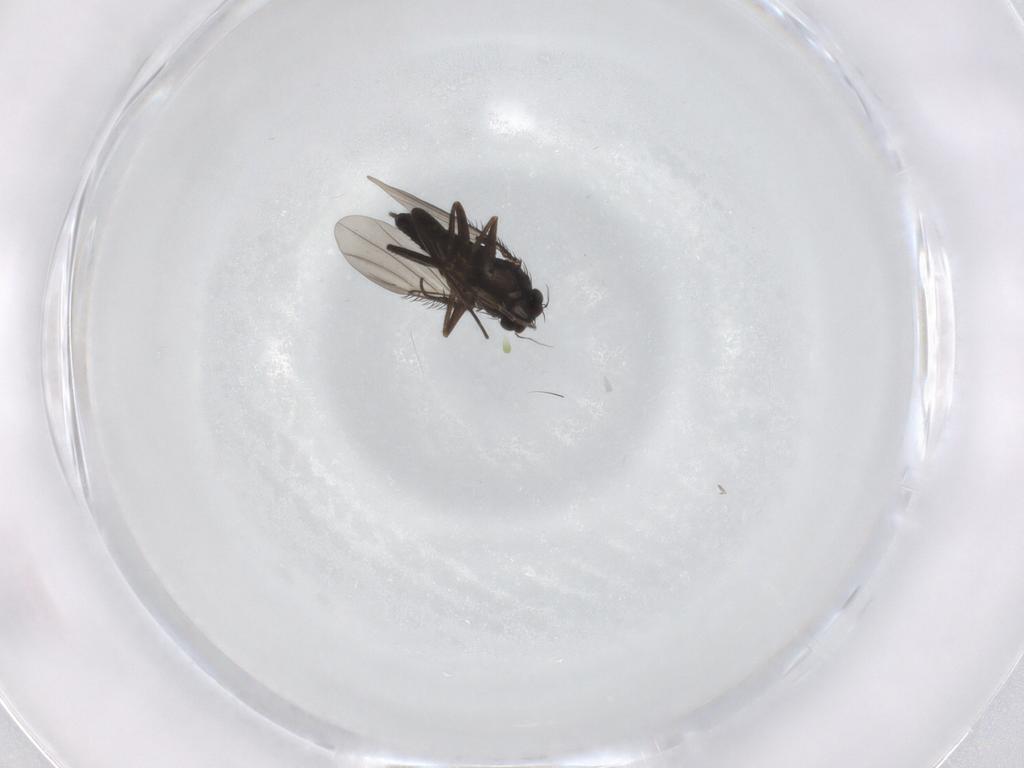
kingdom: Animalia
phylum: Arthropoda
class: Insecta
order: Diptera
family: Phoridae
